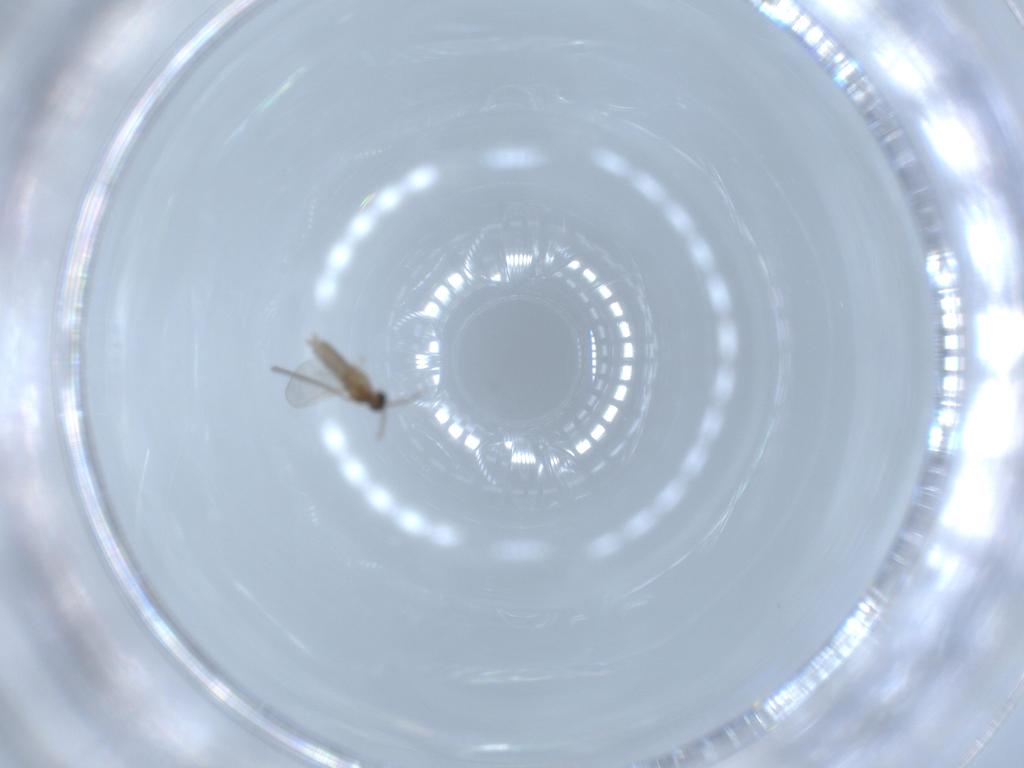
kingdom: Animalia
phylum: Arthropoda
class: Insecta
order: Diptera
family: Cecidomyiidae
